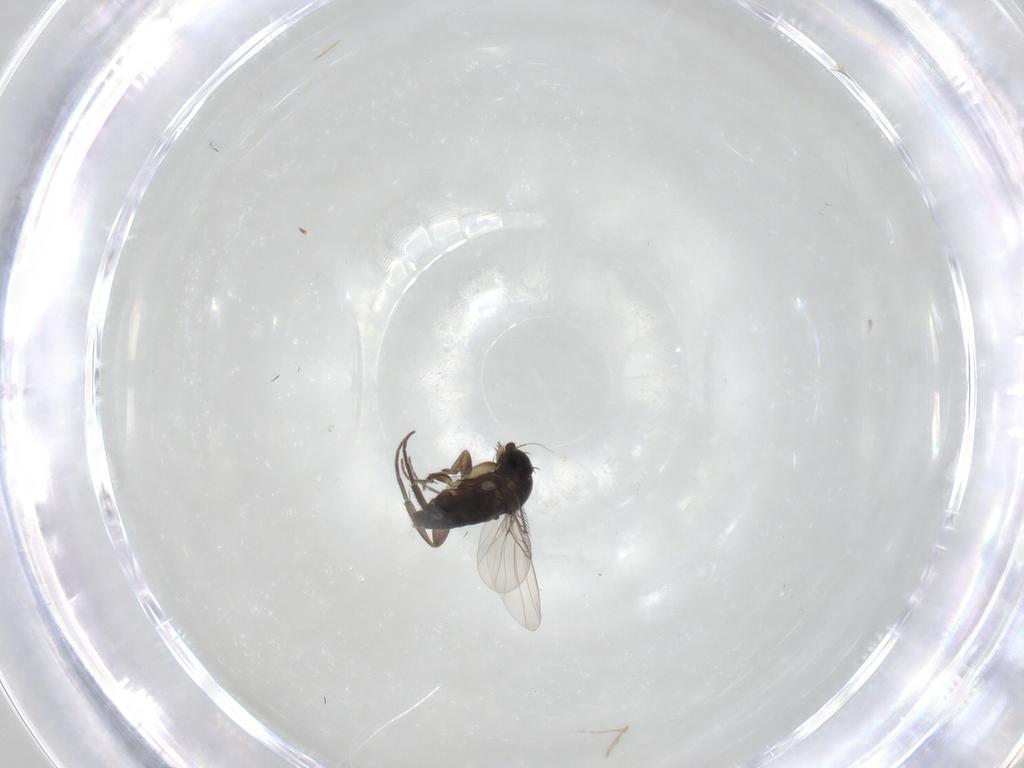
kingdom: Animalia
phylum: Arthropoda
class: Insecta
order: Diptera
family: Phoridae
